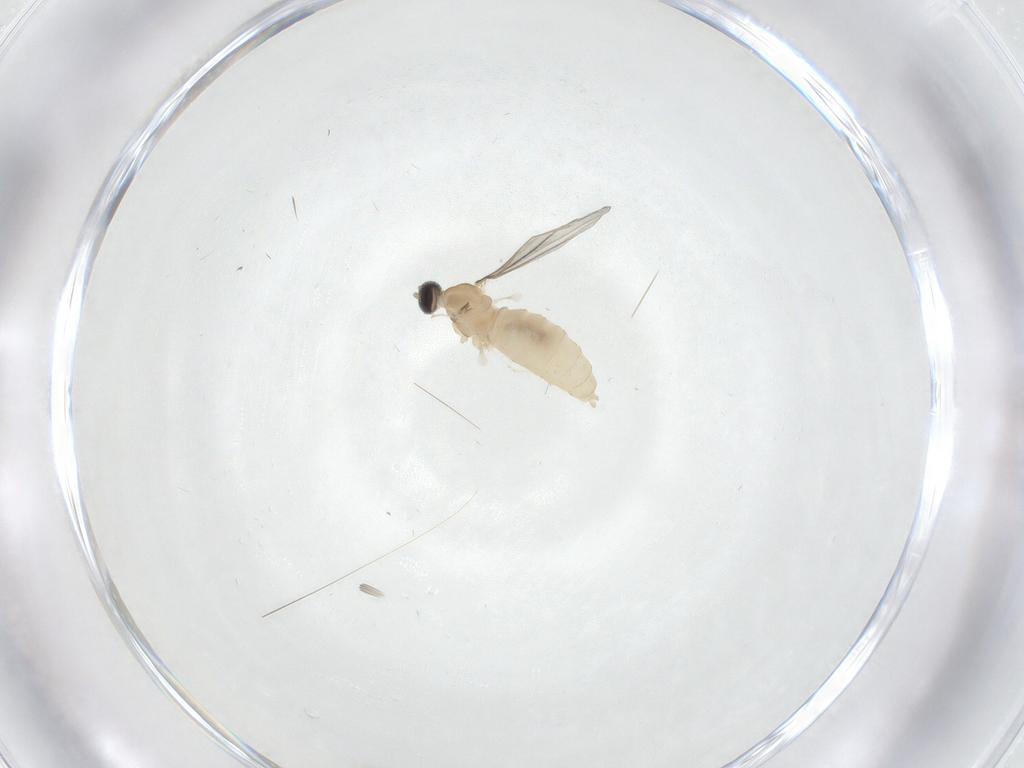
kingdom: Animalia
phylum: Arthropoda
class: Insecta
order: Diptera
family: Cecidomyiidae
